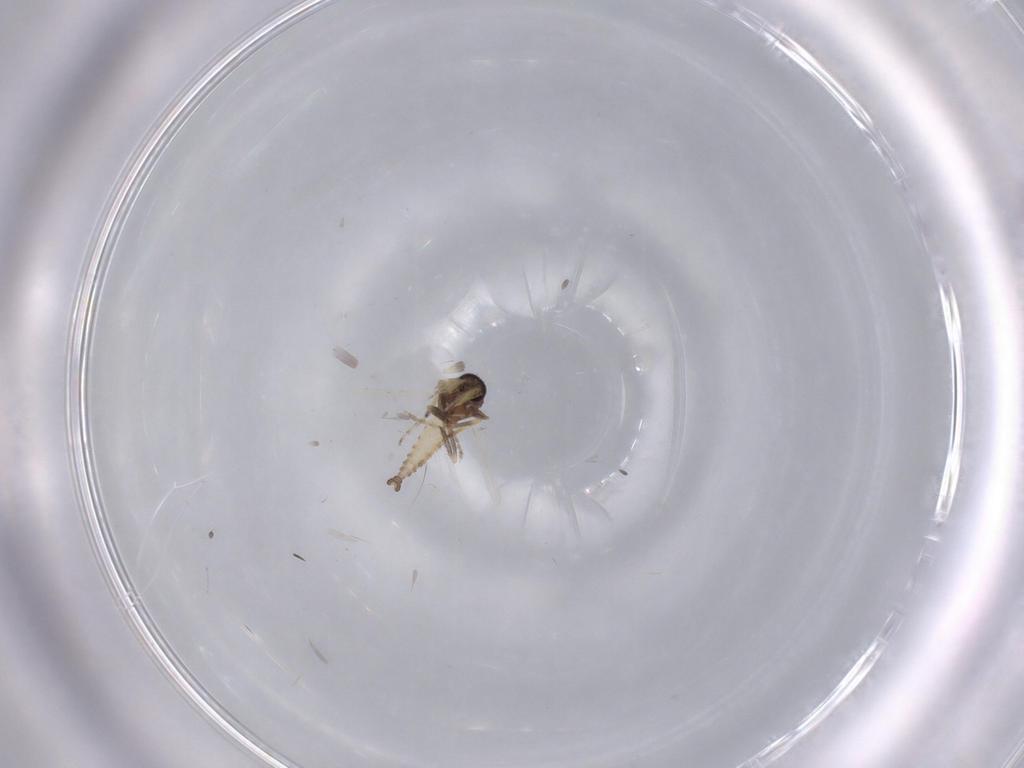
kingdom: Animalia
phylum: Arthropoda
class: Insecta
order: Diptera
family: Ceratopogonidae
